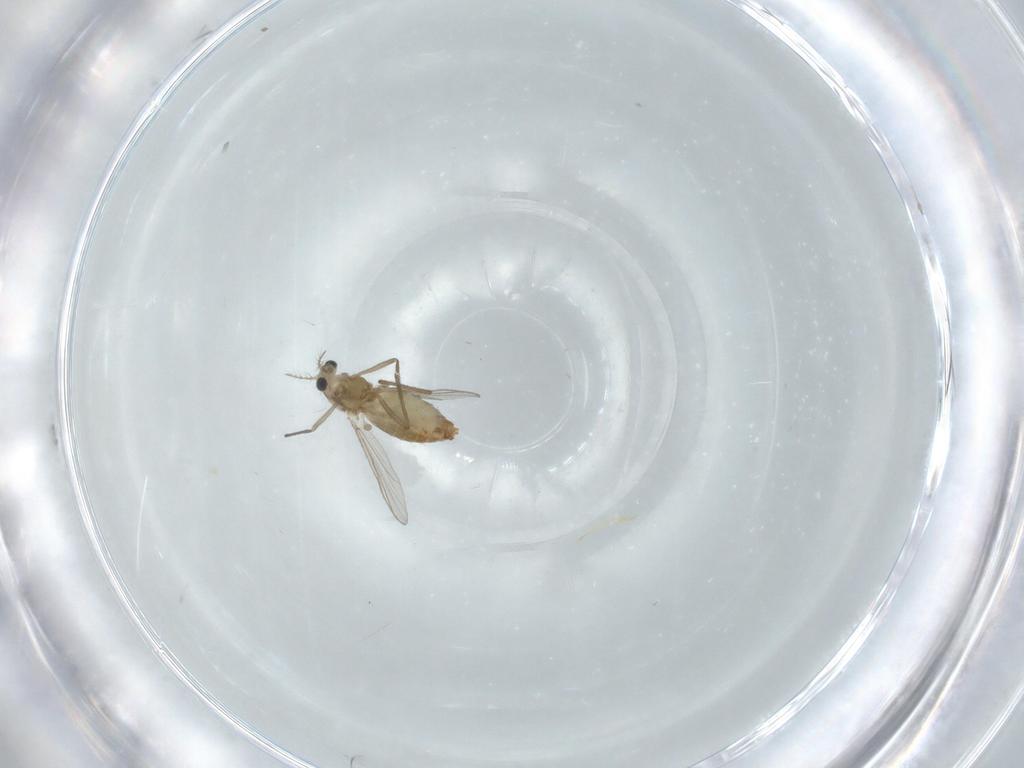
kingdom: Animalia
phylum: Arthropoda
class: Insecta
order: Diptera
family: Chironomidae
